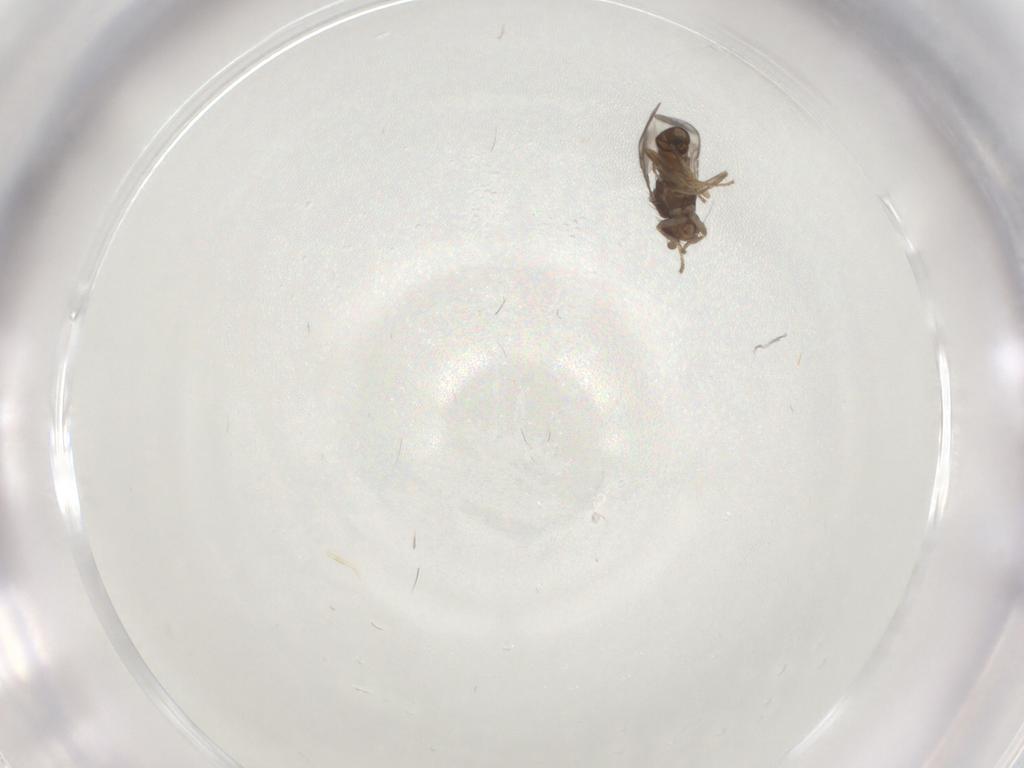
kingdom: Animalia
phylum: Arthropoda
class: Insecta
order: Diptera
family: Sphaeroceridae
